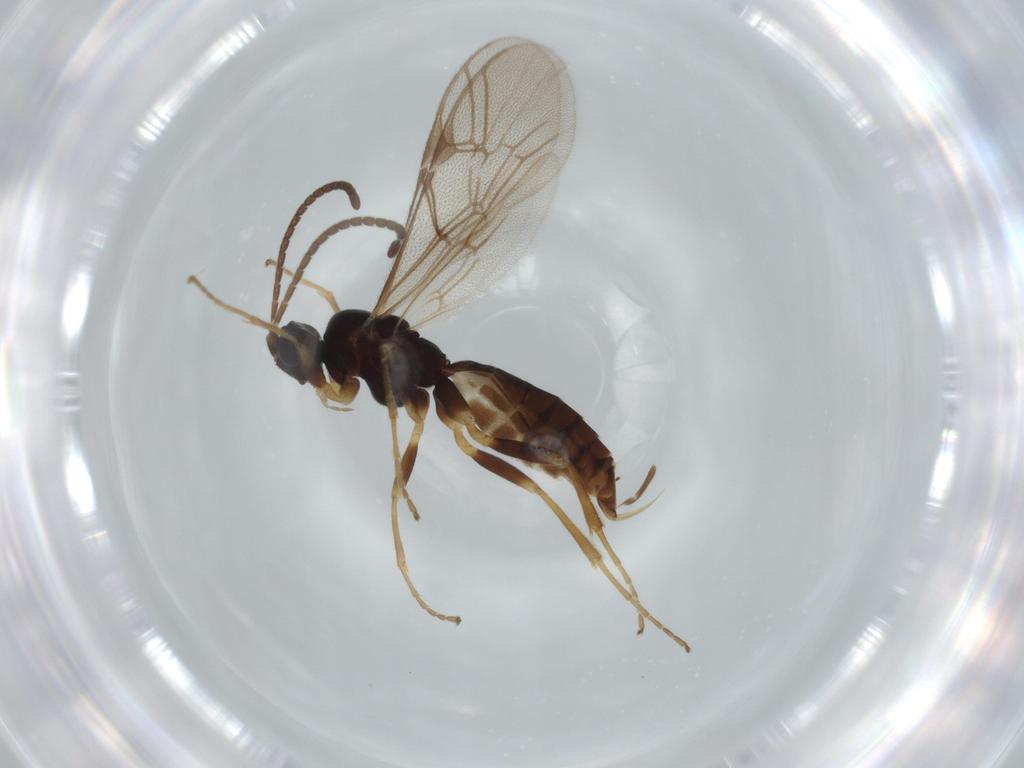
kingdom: Animalia
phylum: Arthropoda
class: Insecta
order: Hymenoptera
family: Ichneumonidae
